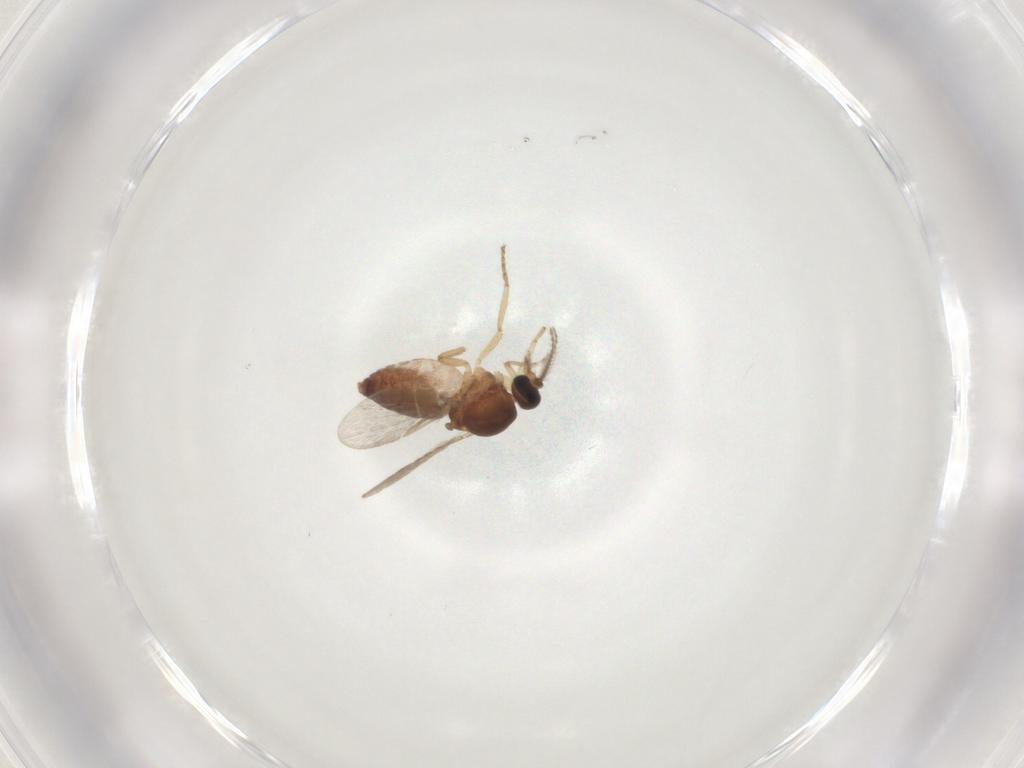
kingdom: Animalia
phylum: Arthropoda
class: Insecta
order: Diptera
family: Ceratopogonidae
